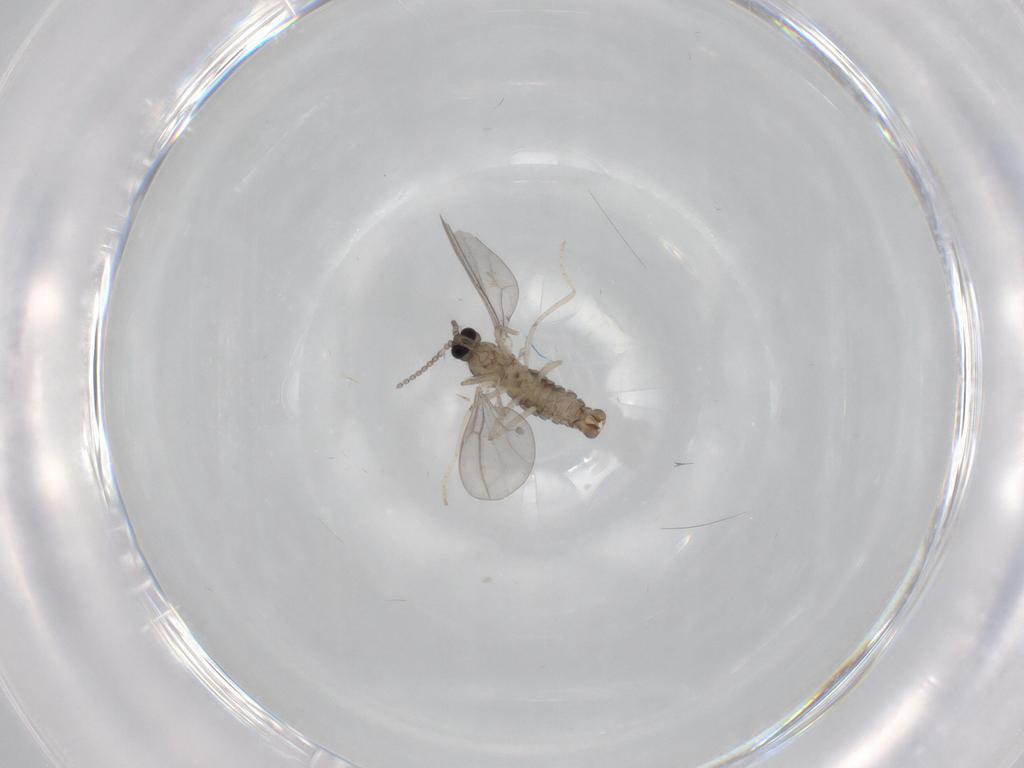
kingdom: Animalia
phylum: Arthropoda
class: Insecta
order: Diptera
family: Cecidomyiidae
